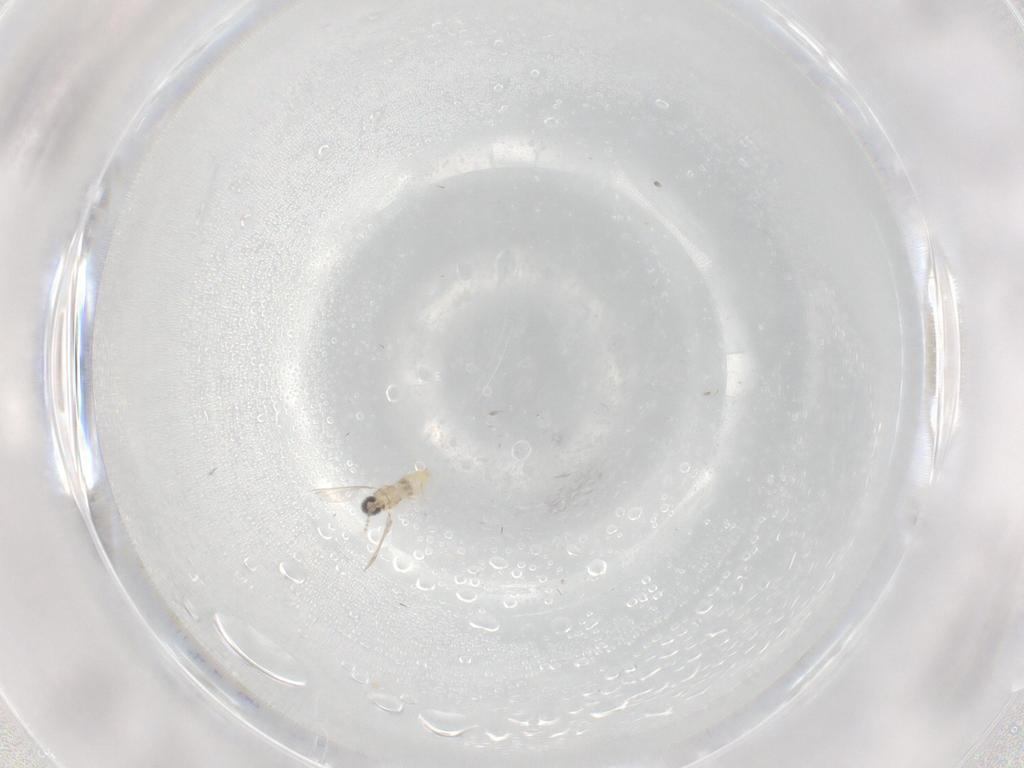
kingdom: Animalia
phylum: Arthropoda
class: Insecta
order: Diptera
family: Cecidomyiidae
